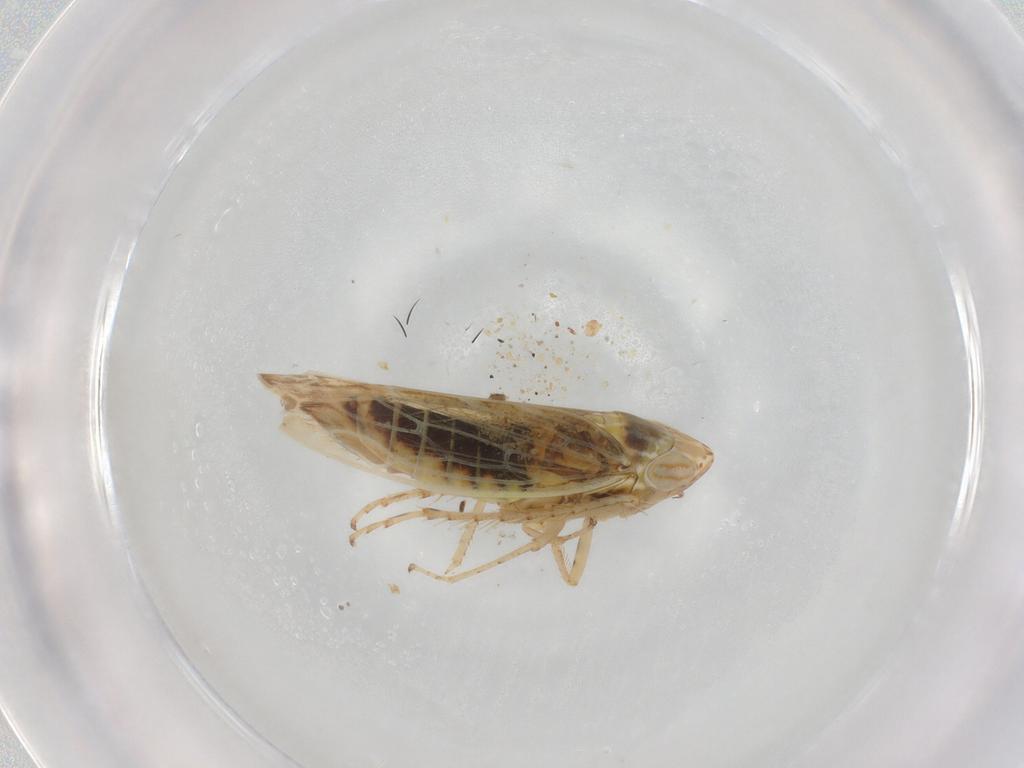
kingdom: Animalia
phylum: Arthropoda
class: Insecta
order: Hemiptera
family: Cicadellidae
